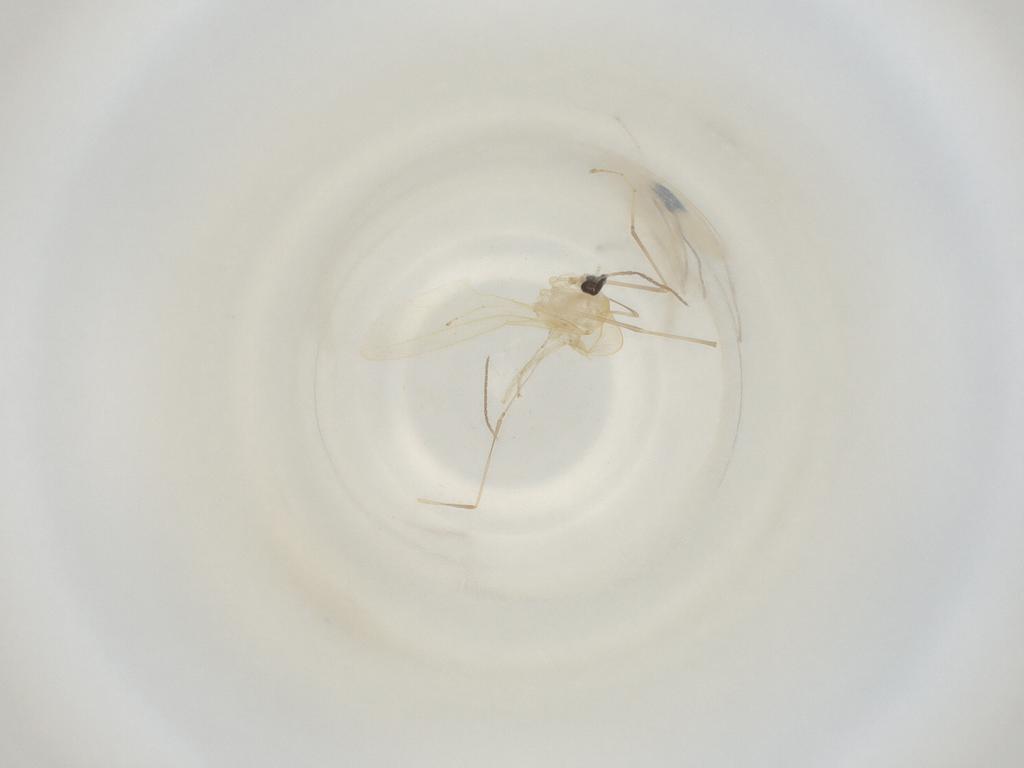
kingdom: Animalia
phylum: Arthropoda
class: Insecta
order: Diptera
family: Cecidomyiidae
